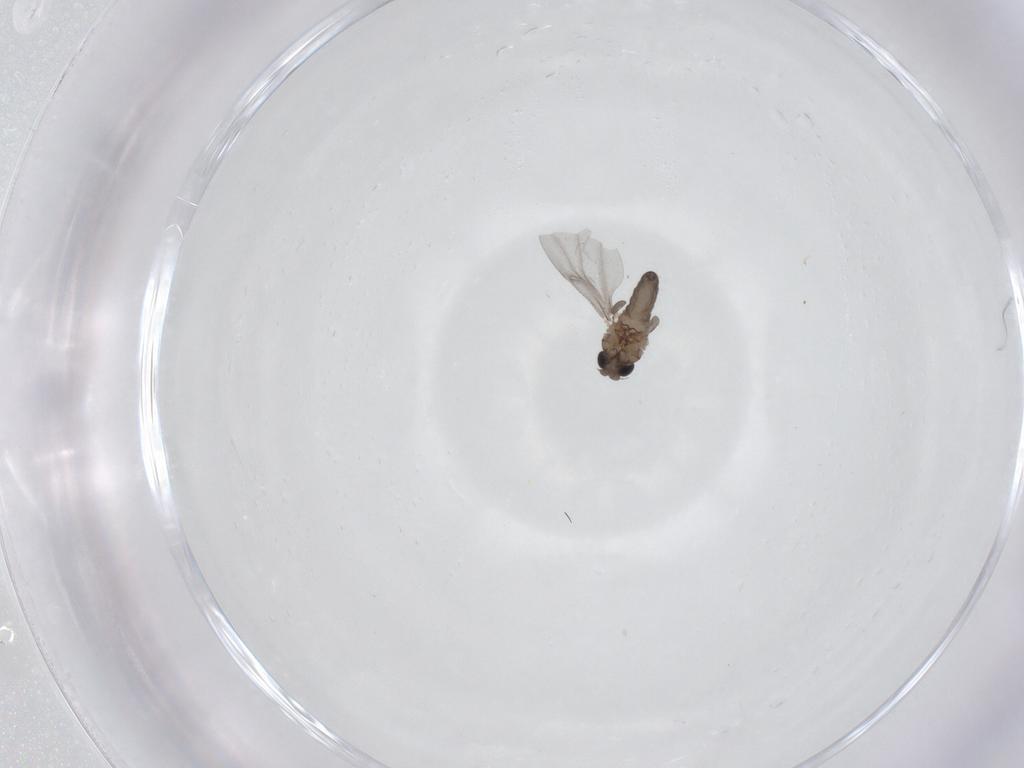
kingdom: Animalia
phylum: Arthropoda
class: Insecta
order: Diptera
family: Phoridae
